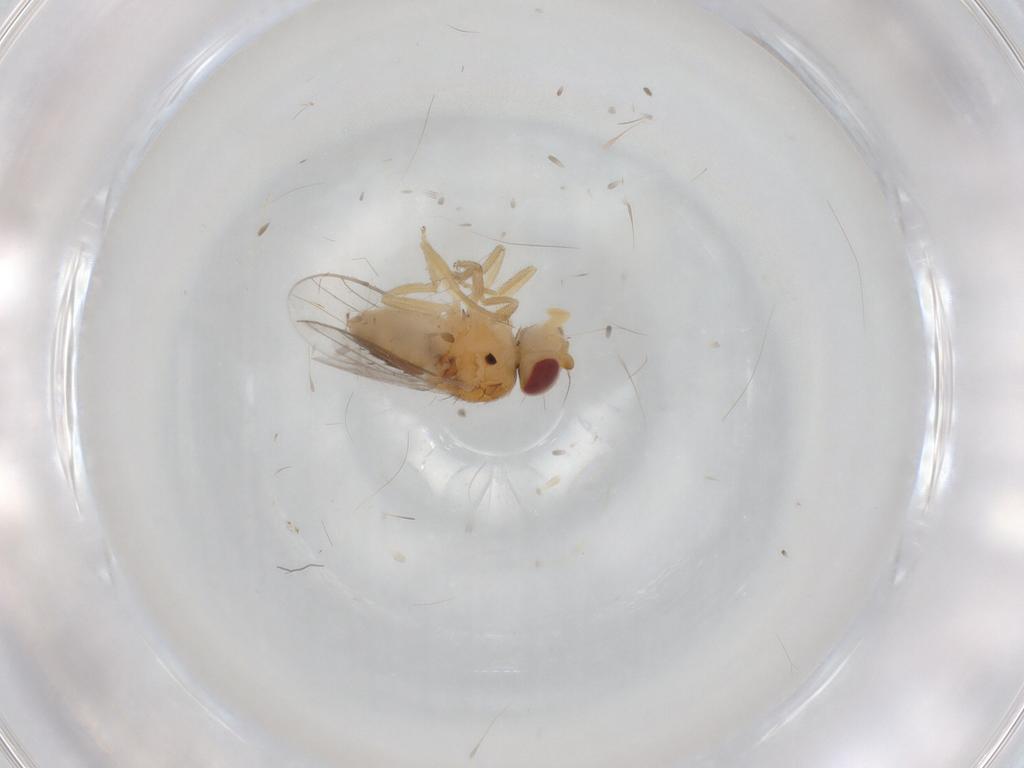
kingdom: Animalia
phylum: Arthropoda
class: Insecta
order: Diptera
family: Chloropidae
